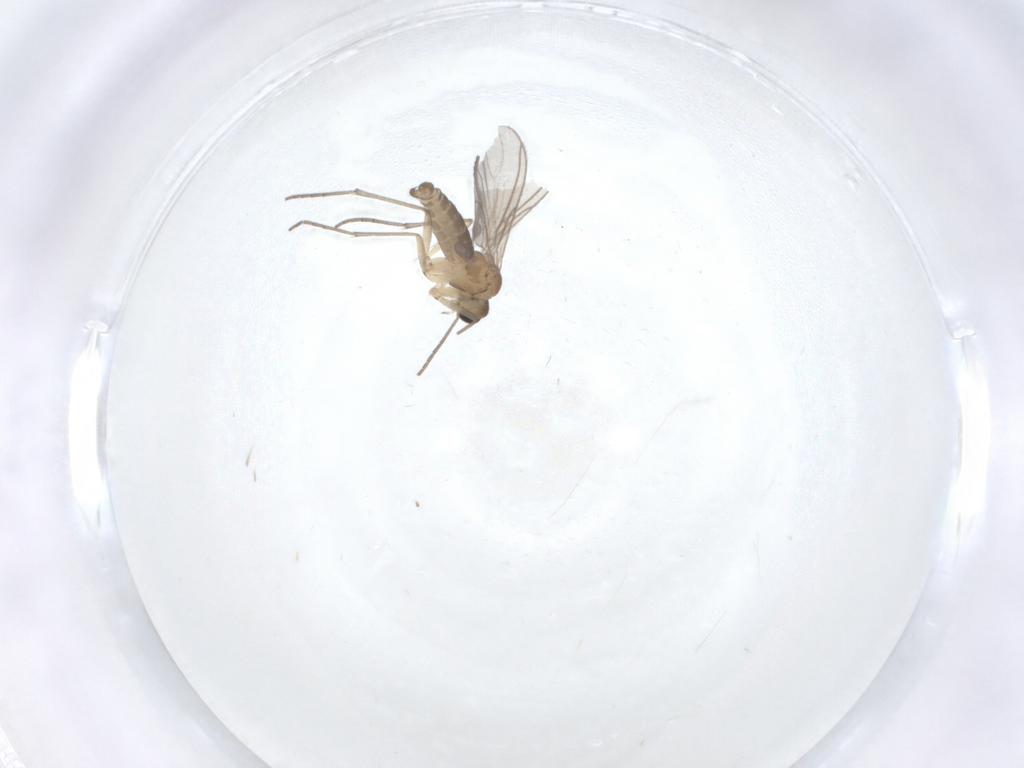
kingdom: Animalia
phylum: Arthropoda
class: Insecta
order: Diptera
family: Sciaridae
